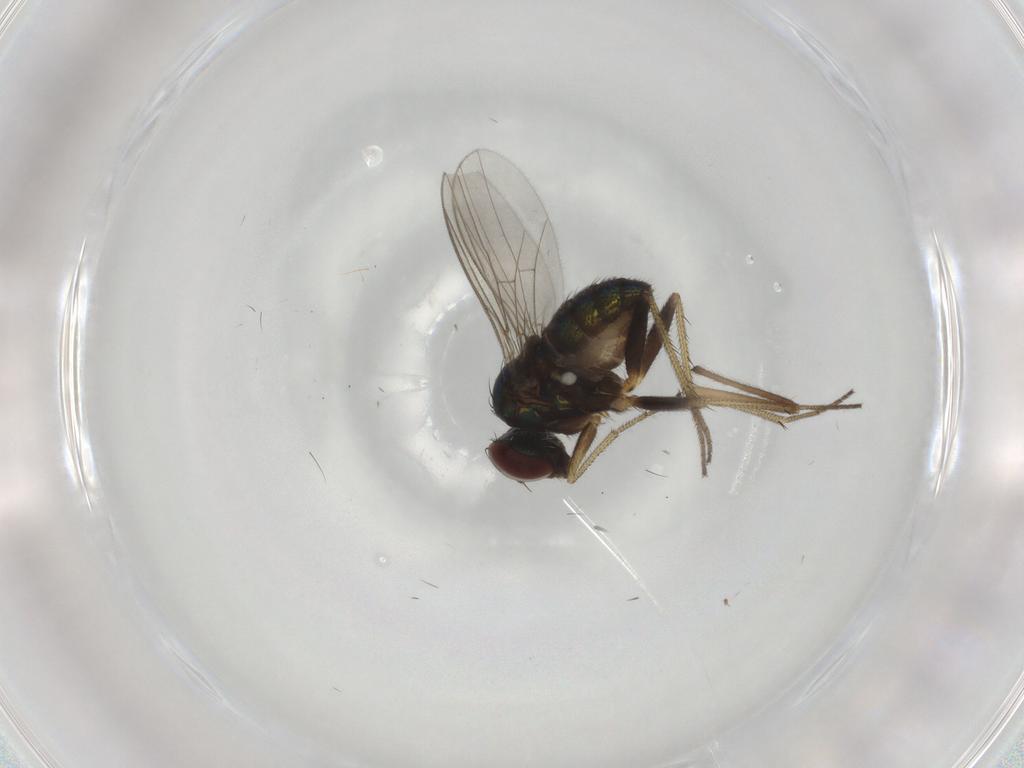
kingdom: Animalia
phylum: Arthropoda
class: Insecta
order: Diptera
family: Dolichopodidae
